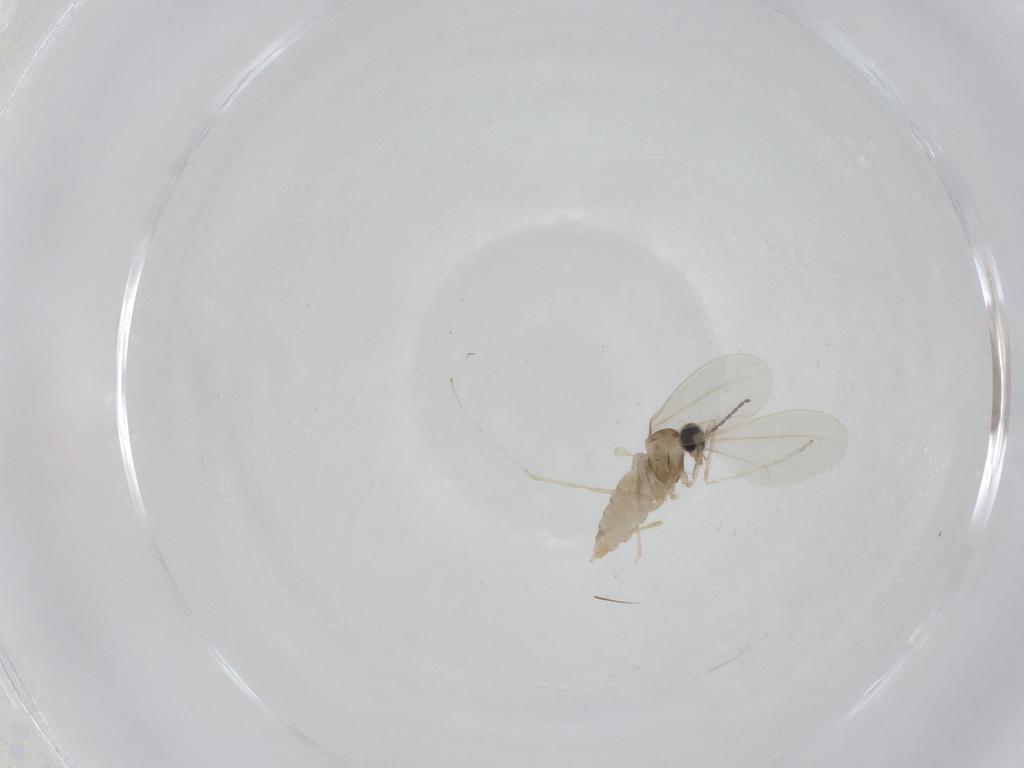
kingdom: Animalia
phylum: Arthropoda
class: Insecta
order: Diptera
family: Cecidomyiidae
